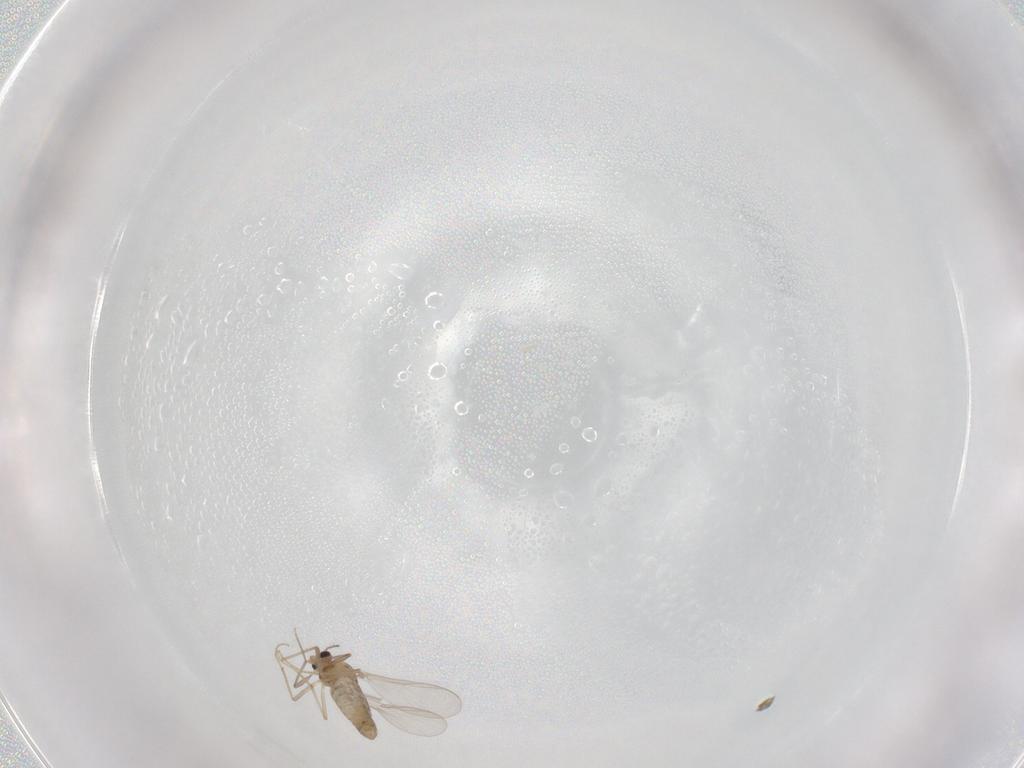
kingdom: Animalia
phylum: Arthropoda
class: Insecta
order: Diptera
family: Chironomidae
